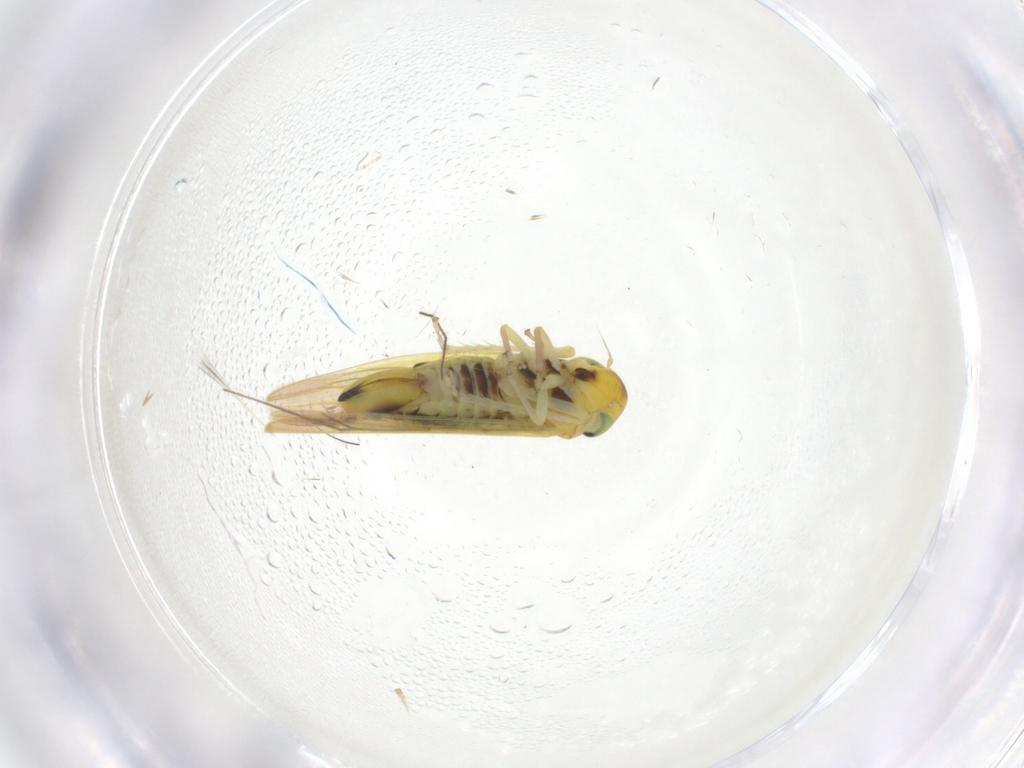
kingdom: Animalia
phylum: Arthropoda
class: Insecta
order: Hemiptera
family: Cicadellidae
